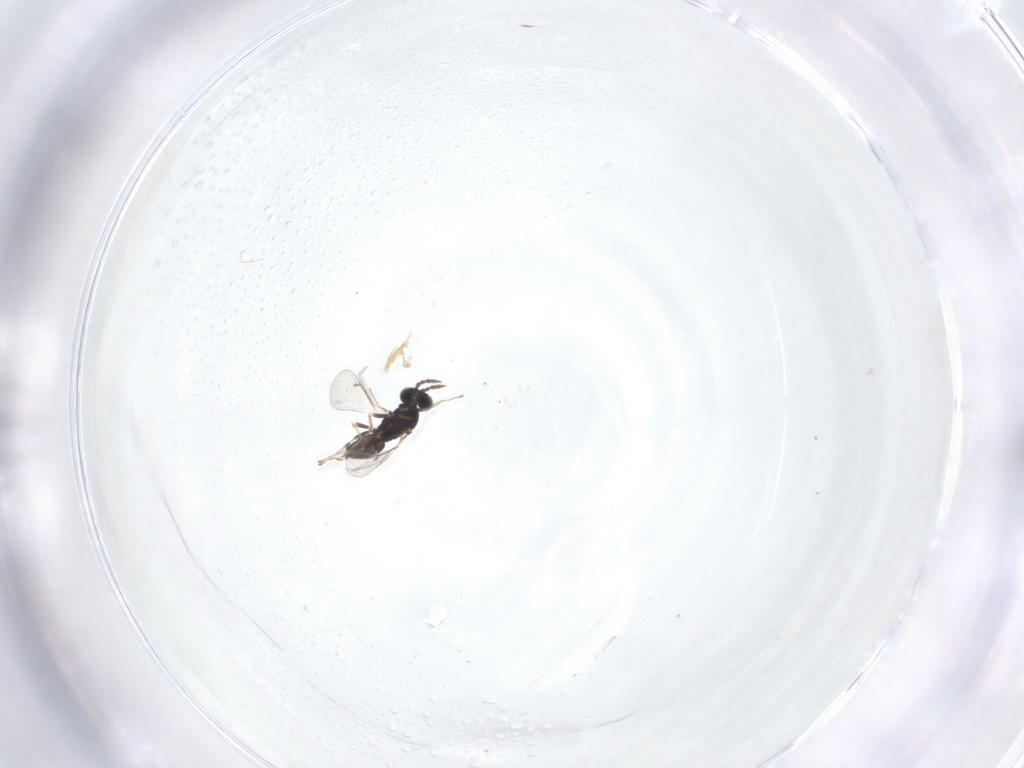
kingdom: Animalia
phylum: Arthropoda
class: Insecta
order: Hymenoptera
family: Eulophidae
